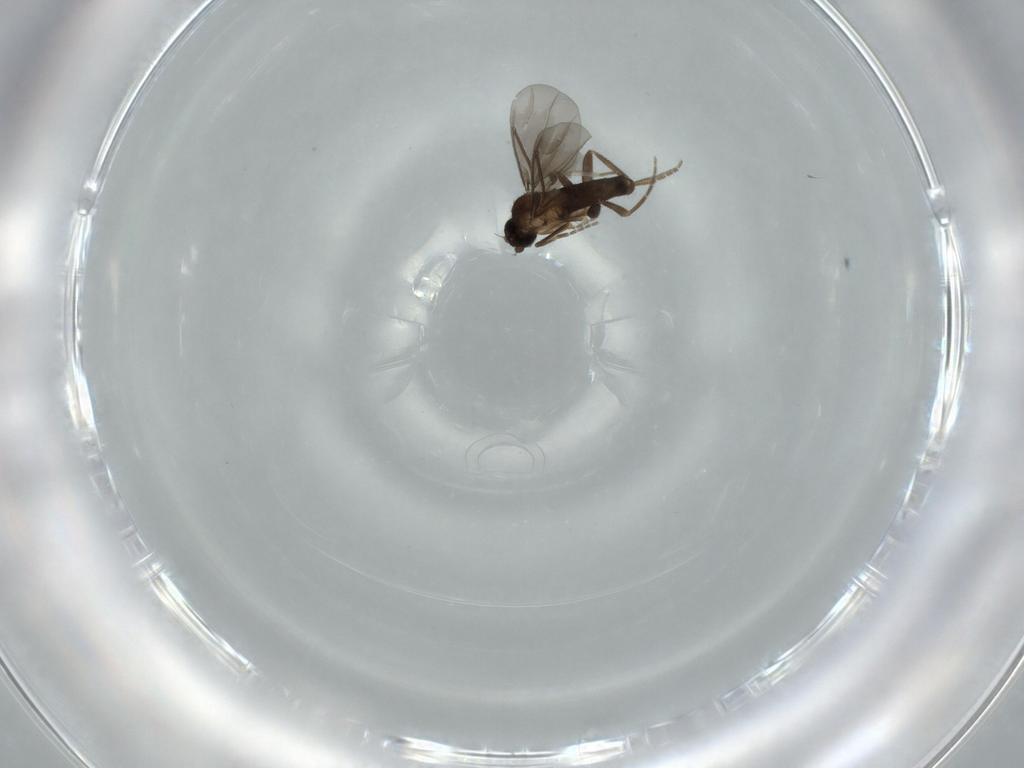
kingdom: Animalia
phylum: Arthropoda
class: Insecta
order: Diptera
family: Phoridae
